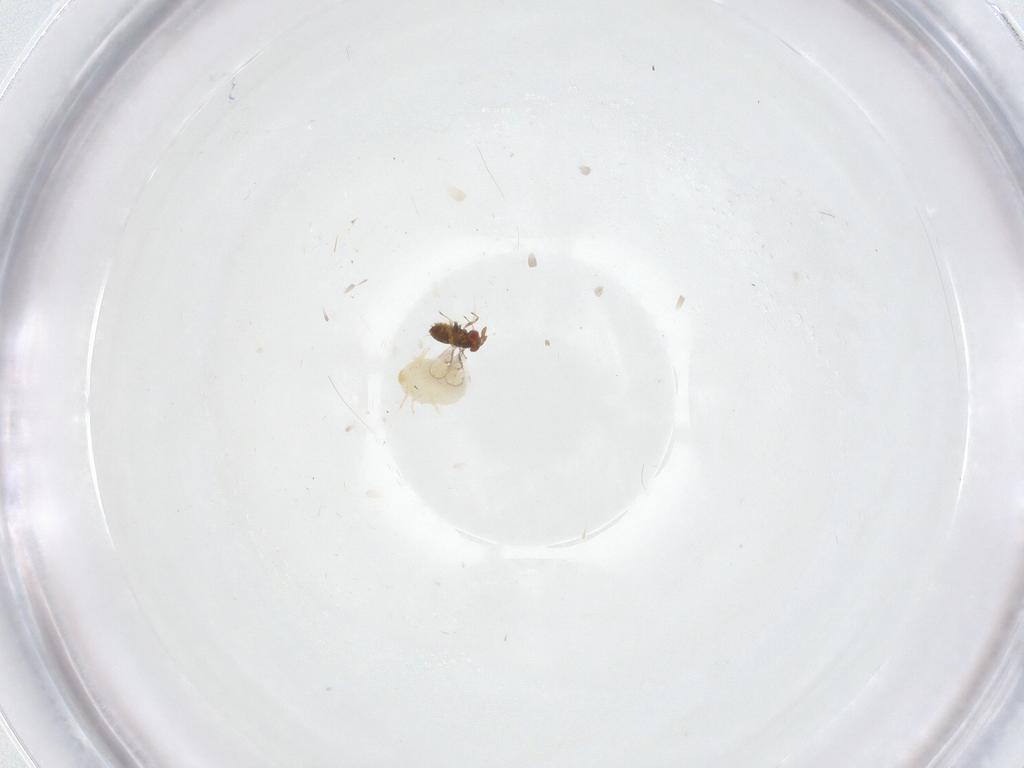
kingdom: Animalia
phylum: Arthropoda
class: Insecta
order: Hymenoptera
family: Trichogrammatidae
